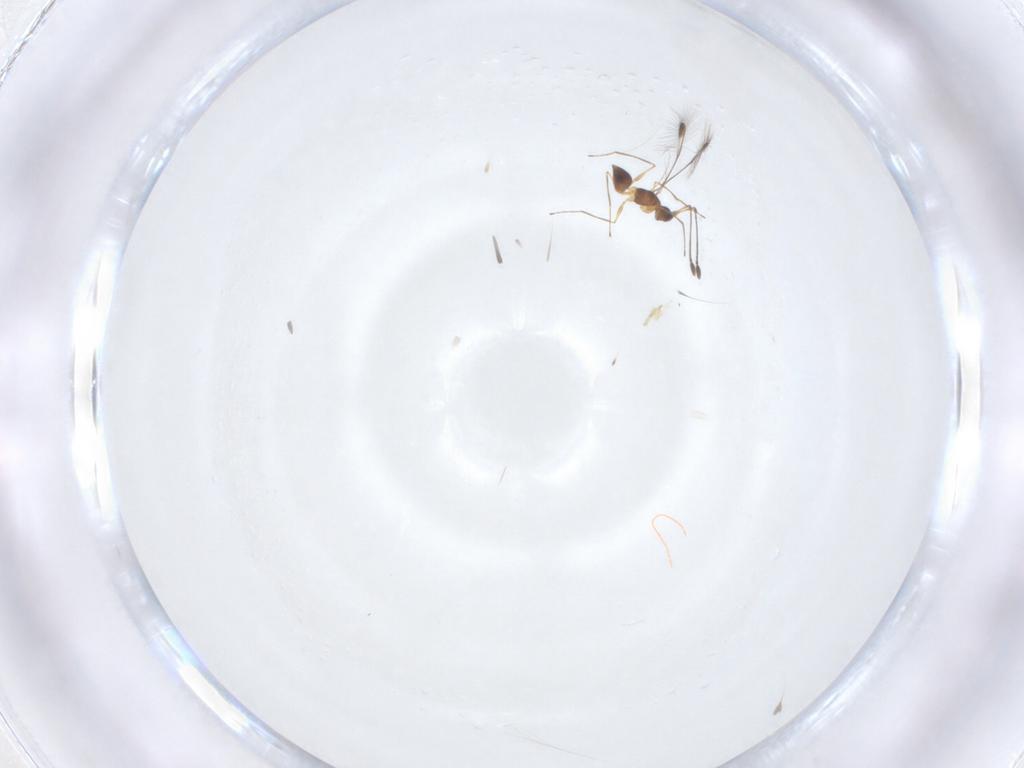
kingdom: Animalia
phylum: Arthropoda
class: Insecta
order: Hymenoptera
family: Mymaridae
